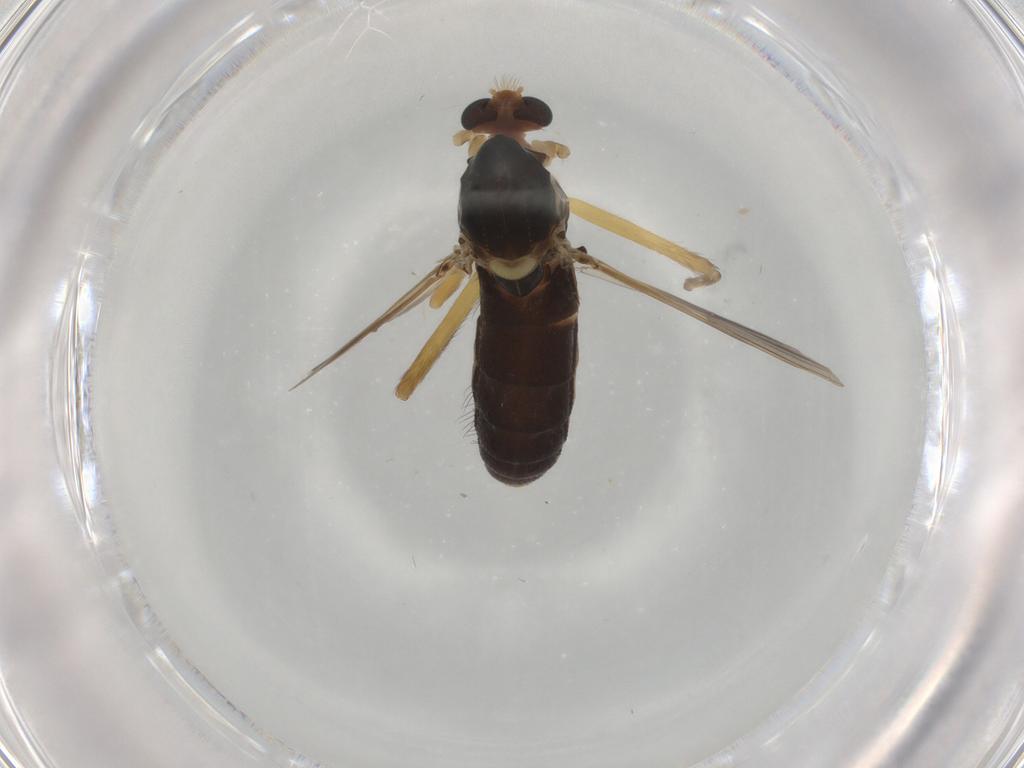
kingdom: Animalia
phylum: Arthropoda
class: Insecta
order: Diptera
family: Chironomidae
